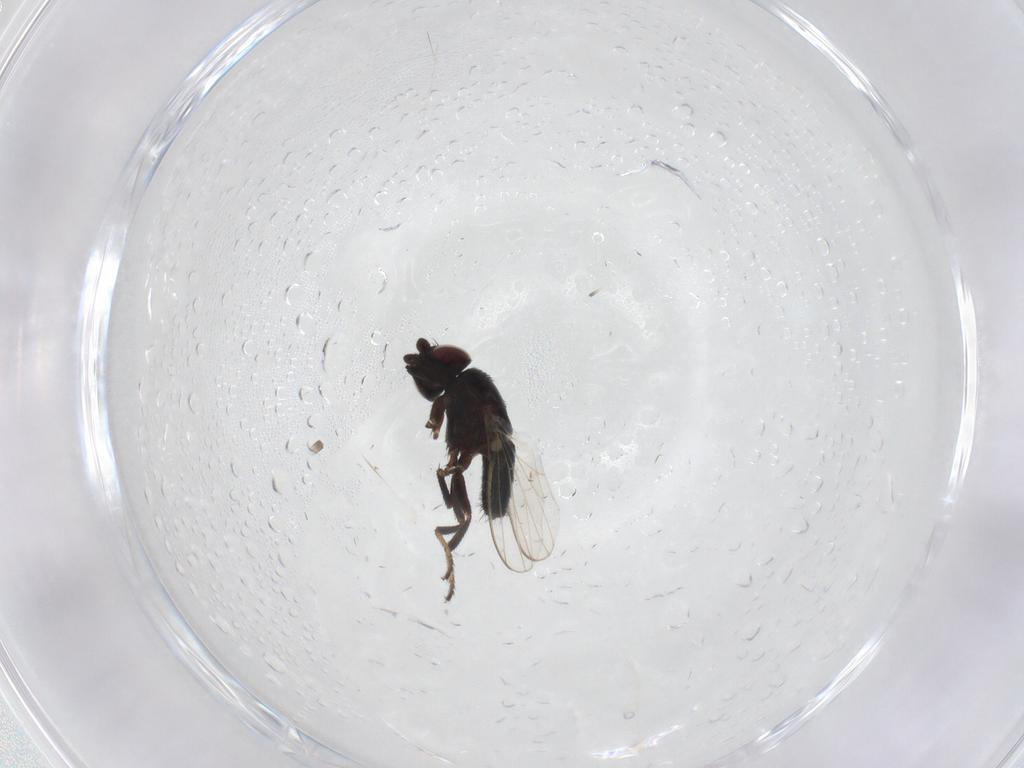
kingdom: Animalia
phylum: Arthropoda
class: Insecta
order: Diptera
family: Milichiidae
